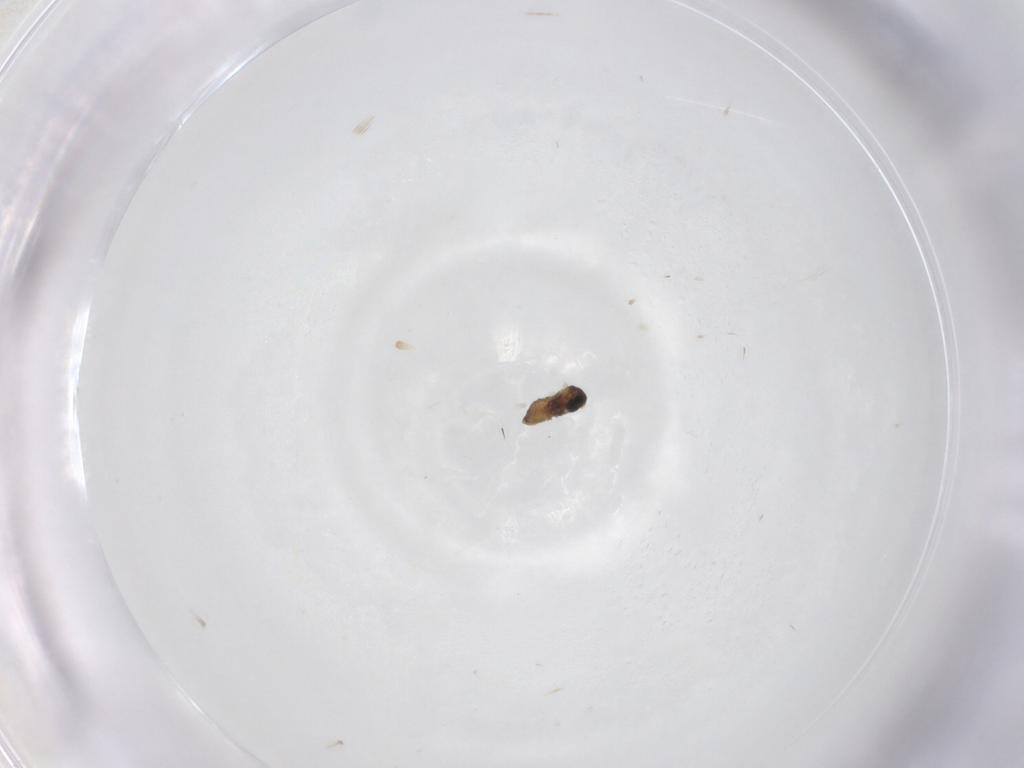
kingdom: Animalia
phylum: Arthropoda
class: Insecta
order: Diptera
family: Cecidomyiidae
